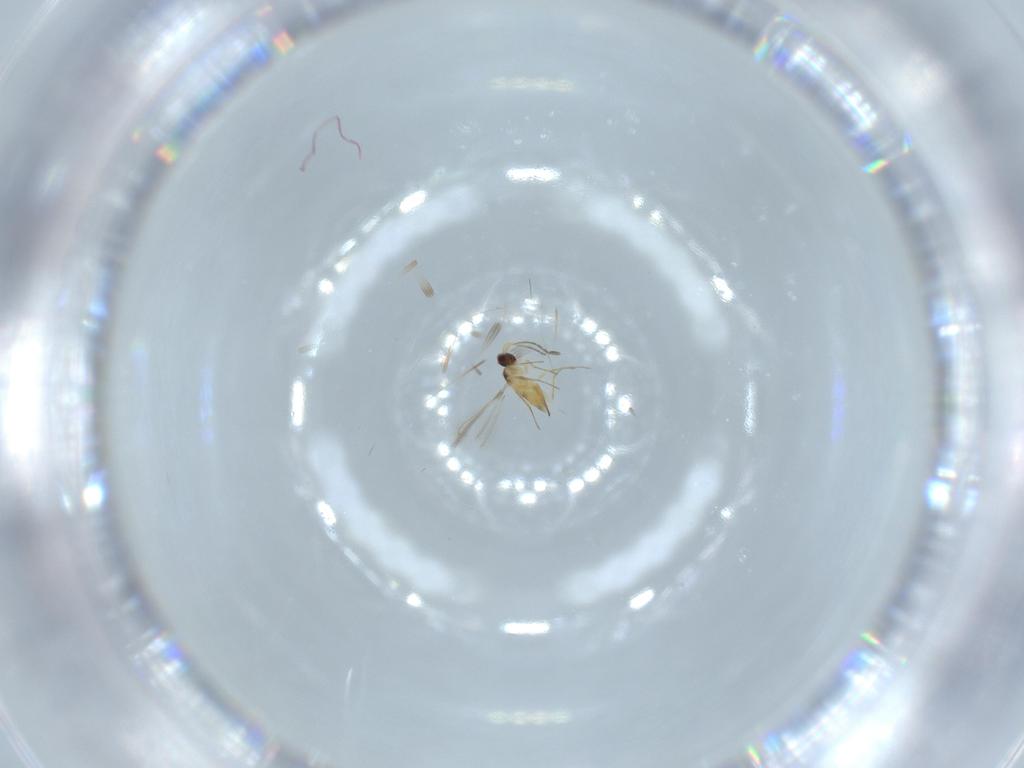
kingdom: Animalia
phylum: Arthropoda
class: Insecta
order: Hymenoptera
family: Mymaridae
